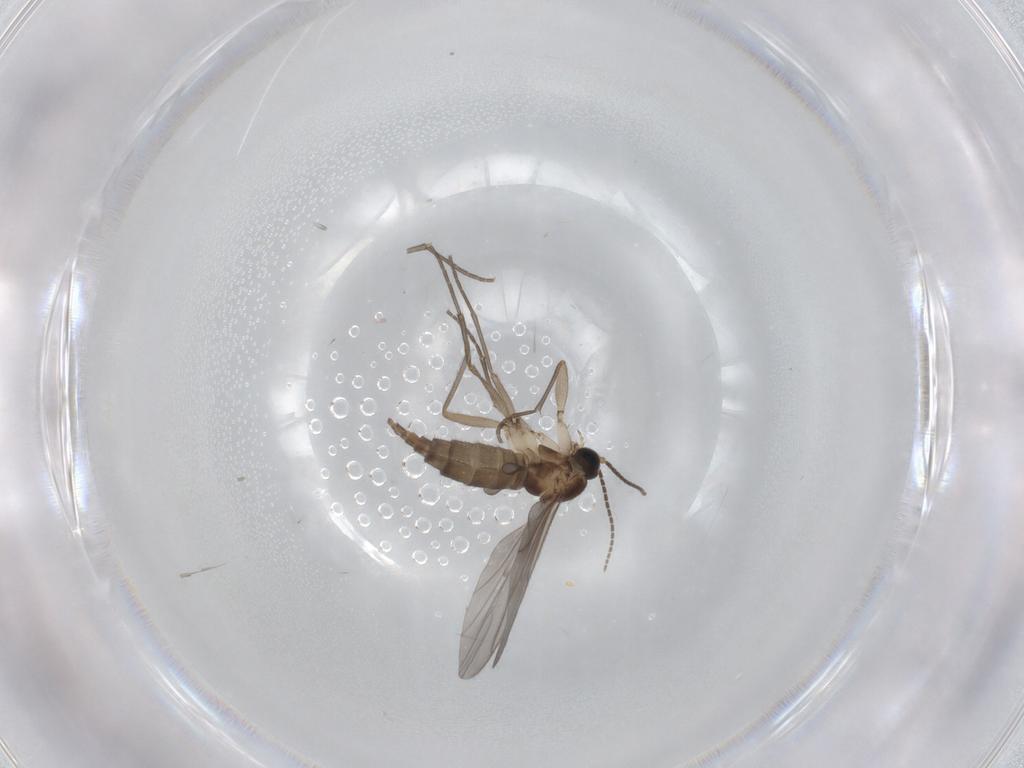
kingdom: Animalia
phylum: Arthropoda
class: Insecta
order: Diptera
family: Sciaridae
